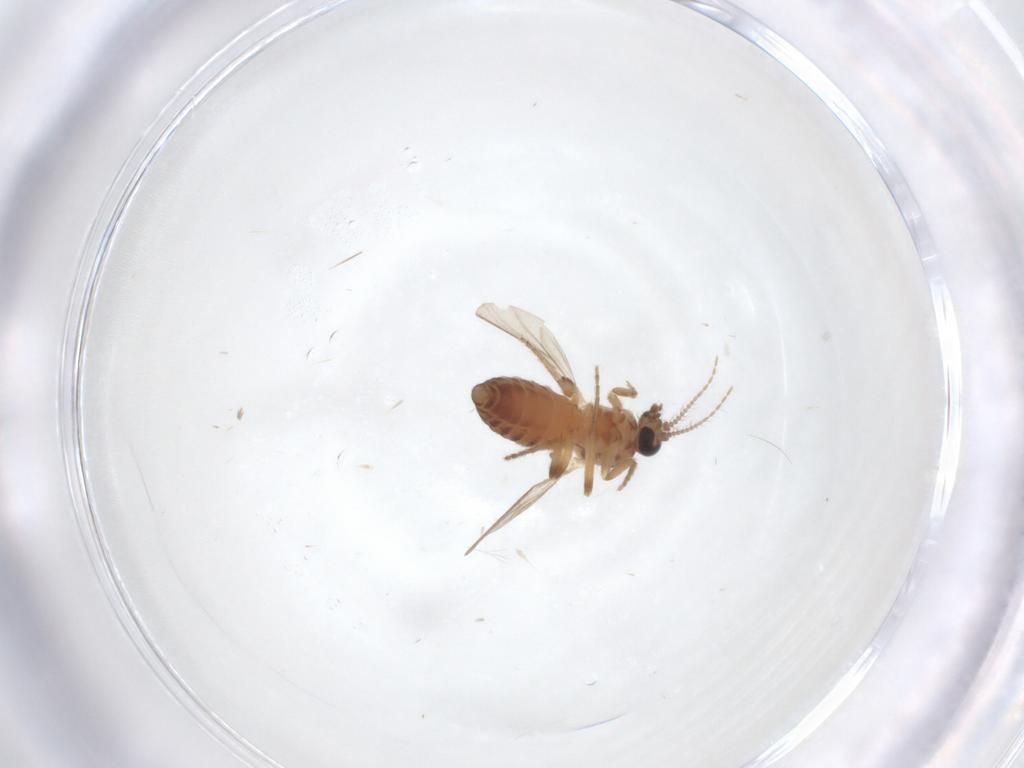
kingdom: Animalia
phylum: Arthropoda
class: Insecta
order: Diptera
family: Ceratopogonidae
